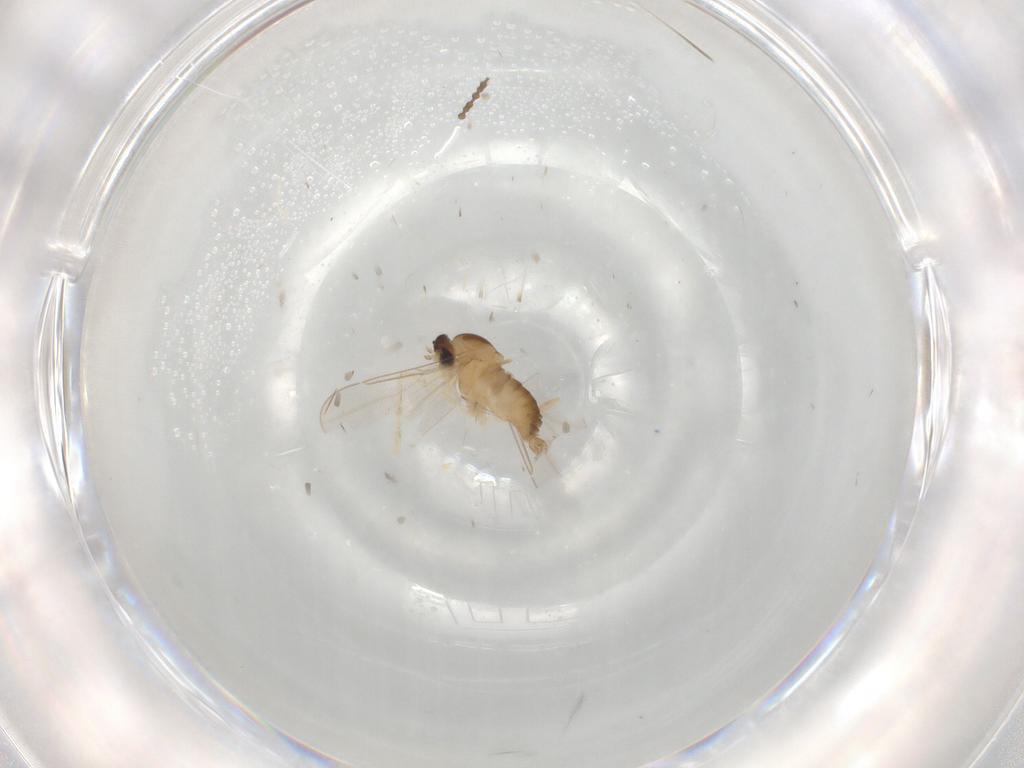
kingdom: Animalia
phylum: Arthropoda
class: Insecta
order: Diptera
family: Cecidomyiidae
